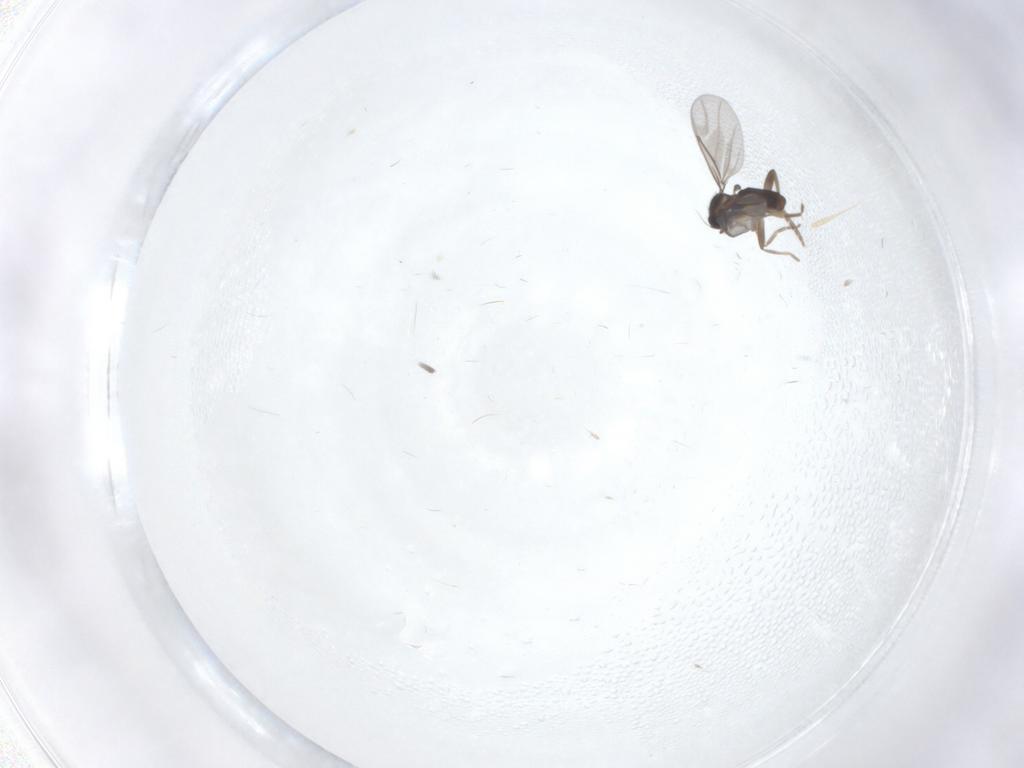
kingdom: Animalia
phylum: Arthropoda
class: Insecta
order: Diptera
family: Phoridae
